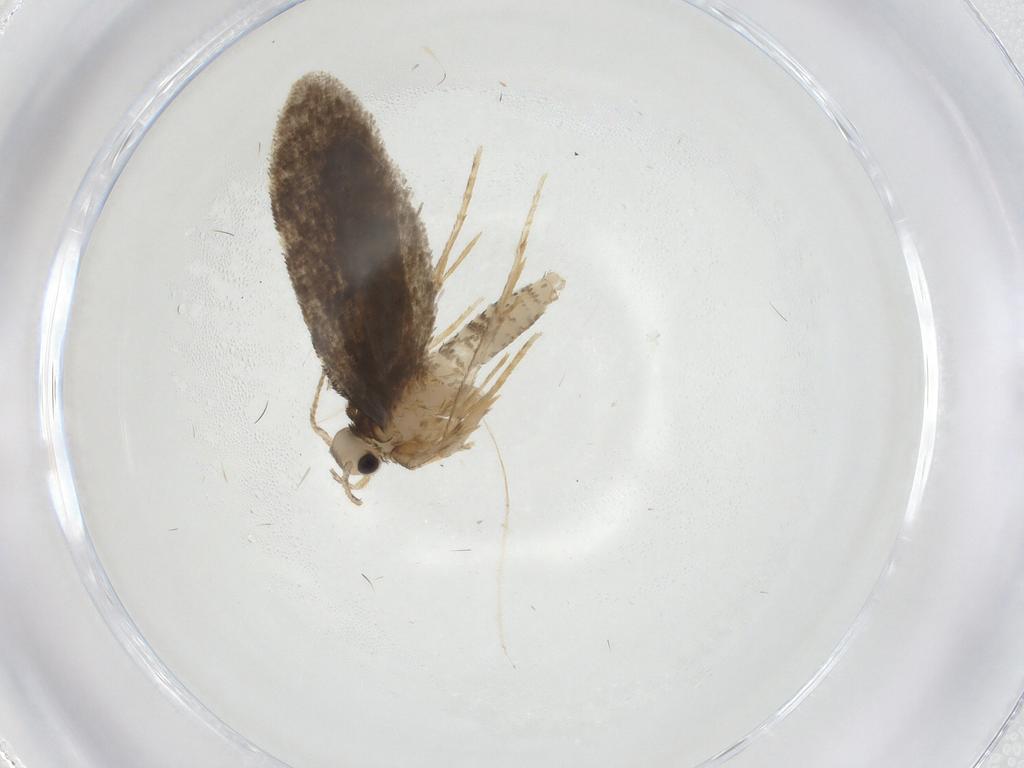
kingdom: Animalia
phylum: Arthropoda
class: Insecta
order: Lepidoptera
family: Psychidae
